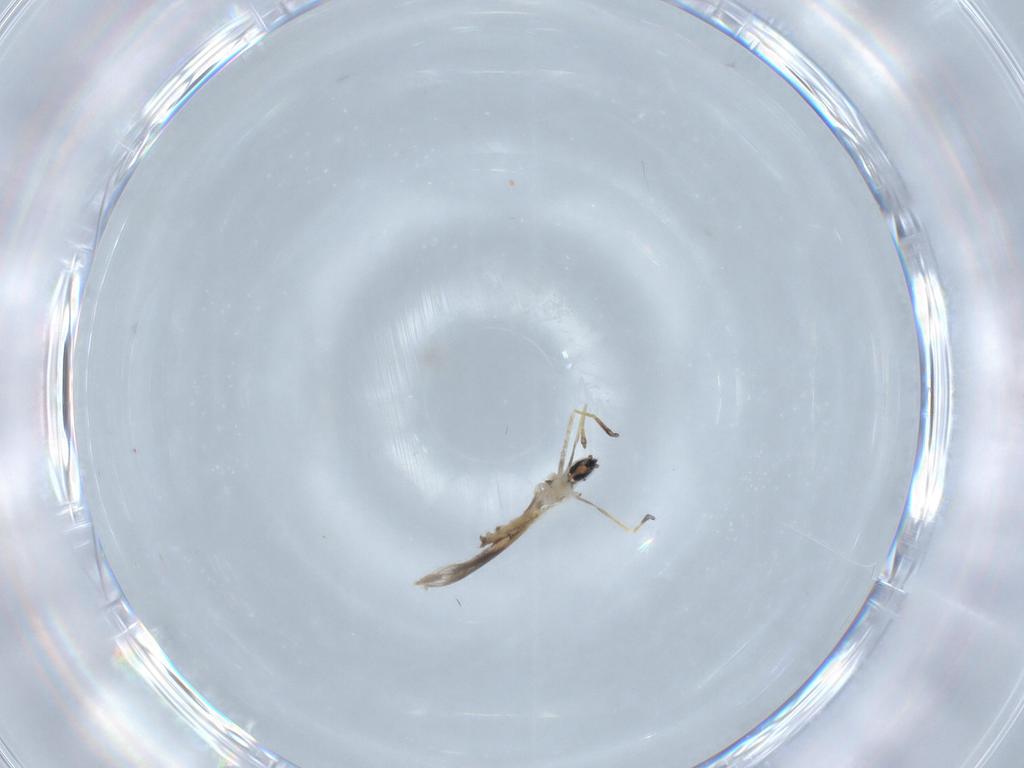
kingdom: Animalia
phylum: Arthropoda
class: Insecta
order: Diptera
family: Cecidomyiidae
